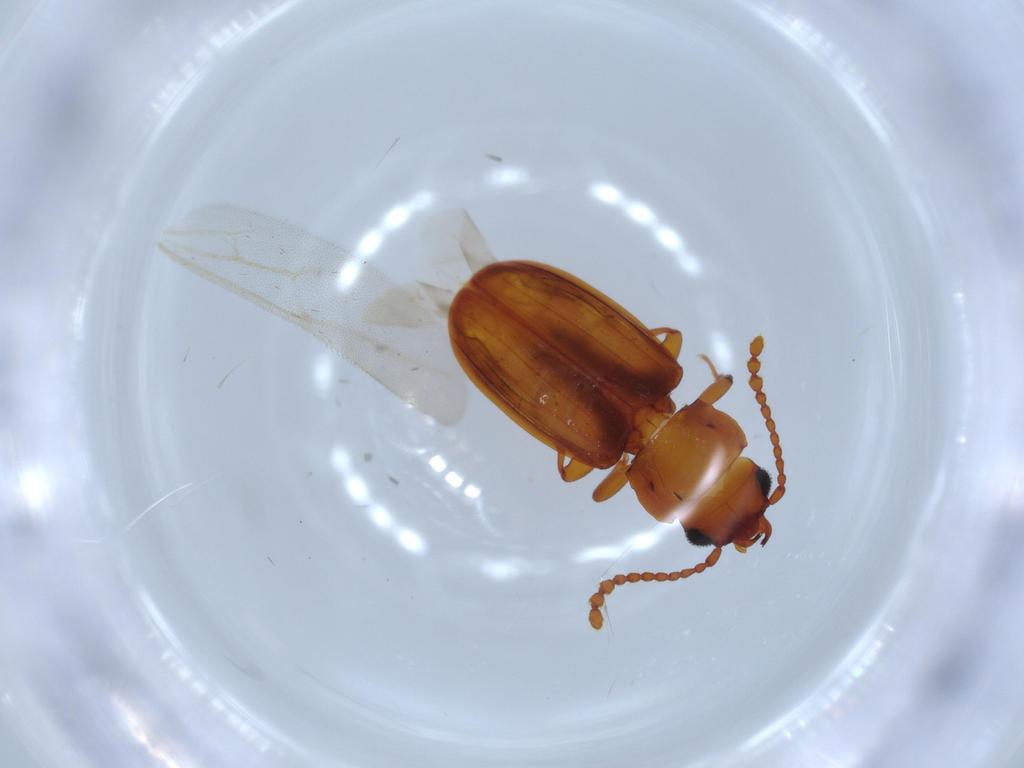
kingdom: Animalia
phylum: Arthropoda
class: Insecta
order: Coleoptera
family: Laemophloeidae
